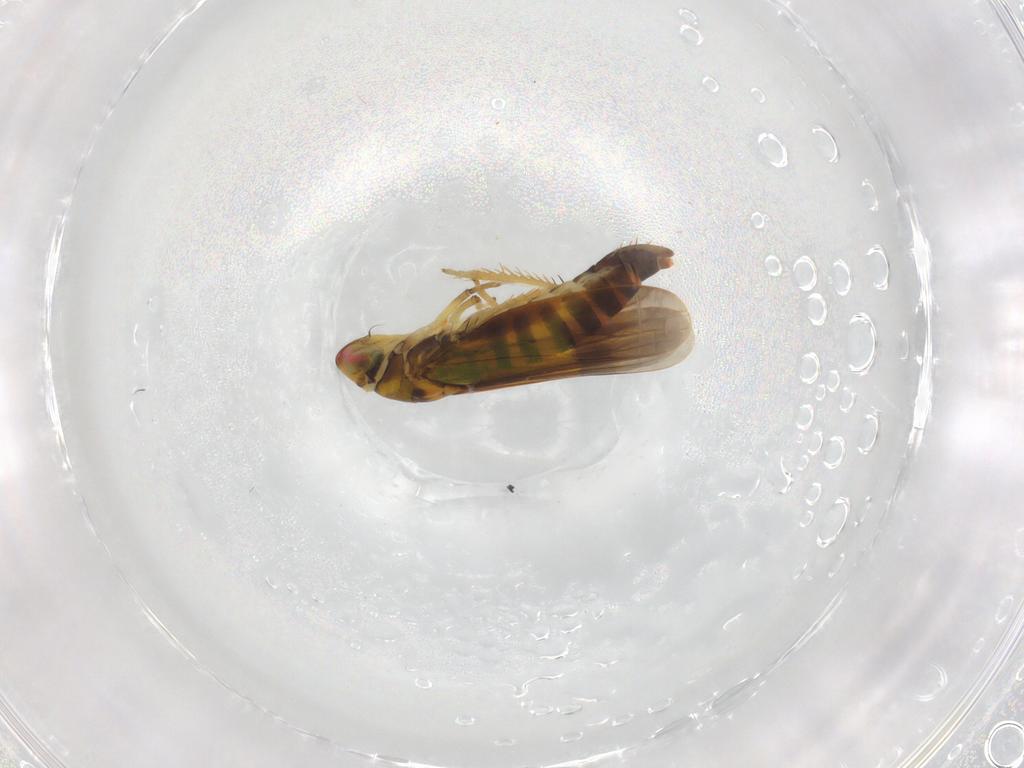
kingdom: Animalia
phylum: Arthropoda
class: Insecta
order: Hemiptera
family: Cicadellidae
